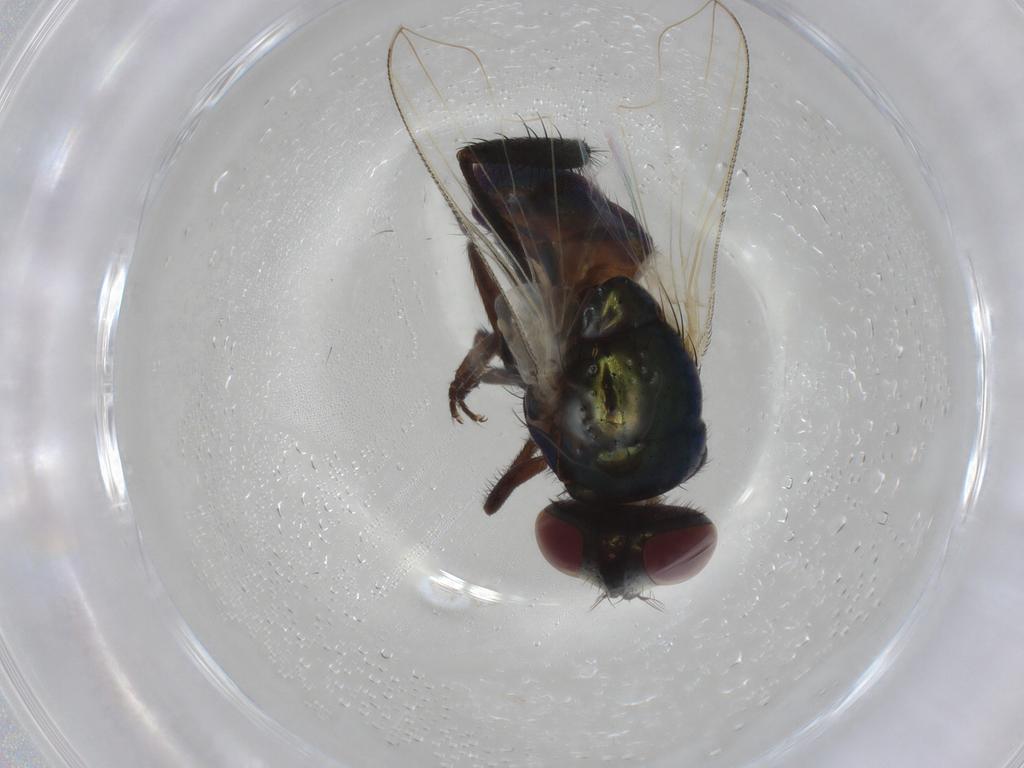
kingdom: Animalia
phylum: Arthropoda
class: Insecta
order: Diptera
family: Anthomyiidae
